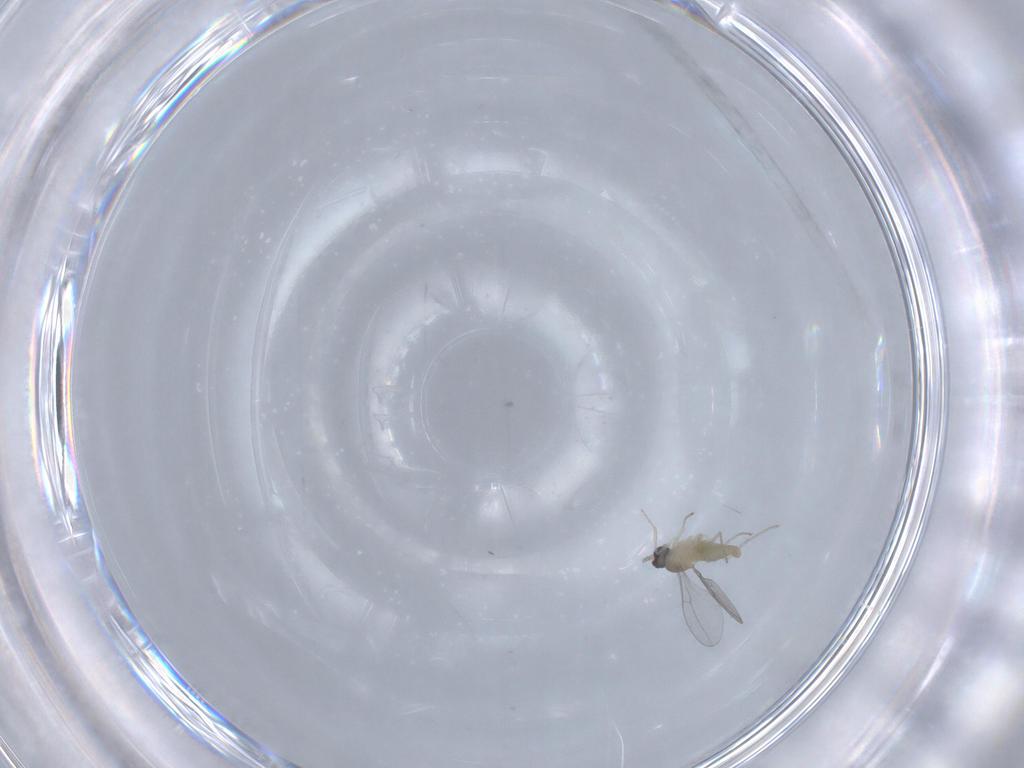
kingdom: Animalia
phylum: Arthropoda
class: Insecta
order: Diptera
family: Cecidomyiidae
